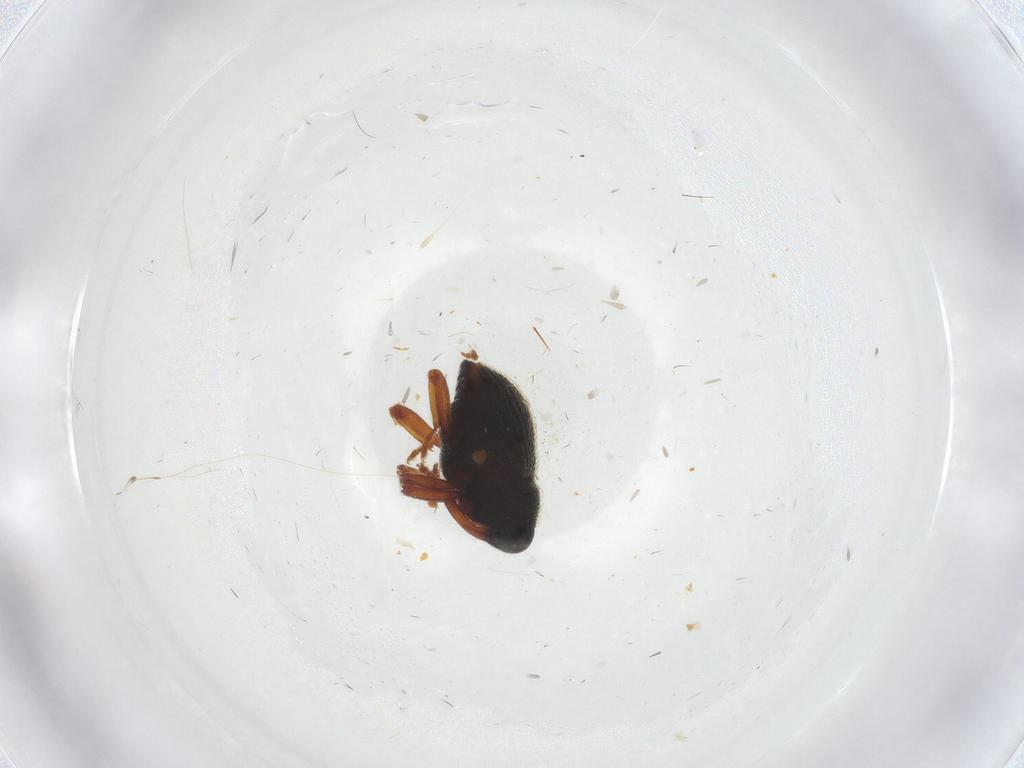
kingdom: Animalia
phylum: Arthropoda
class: Insecta
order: Coleoptera
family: Curculionidae
